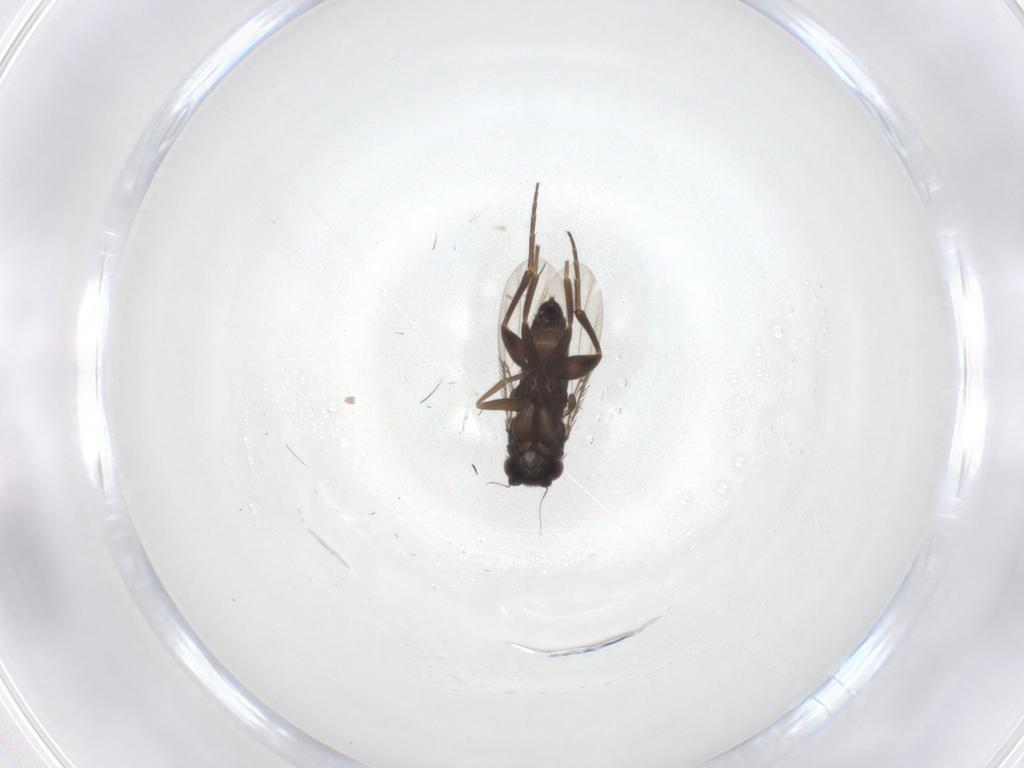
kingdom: Animalia
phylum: Arthropoda
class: Insecta
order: Diptera
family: Phoridae
